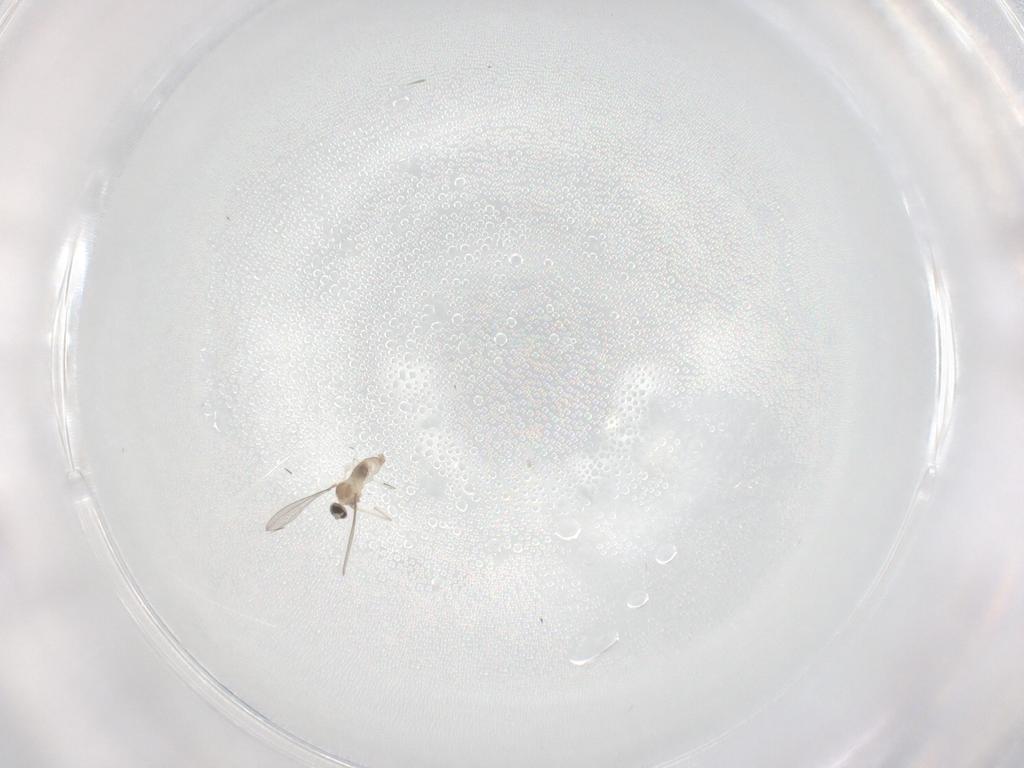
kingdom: Animalia
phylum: Arthropoda
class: Insecta
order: Diptera
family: Cecidomyiidae
